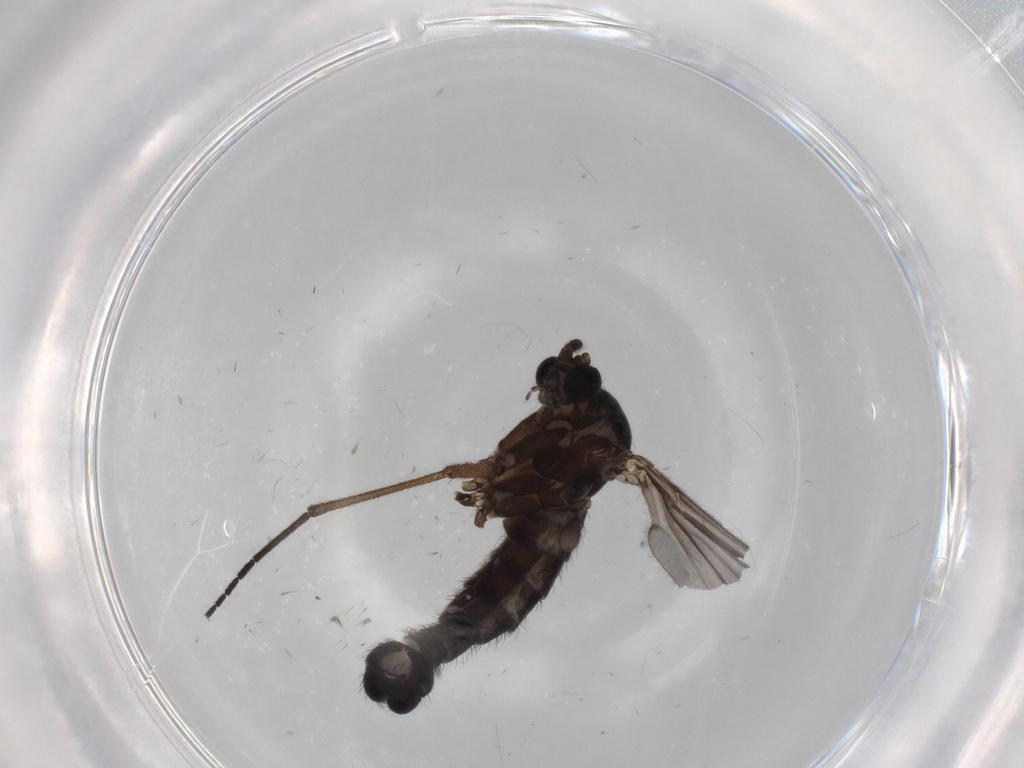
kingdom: Animalia
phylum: Arthropoda
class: Insecta
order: Diptera
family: Sciaridae
